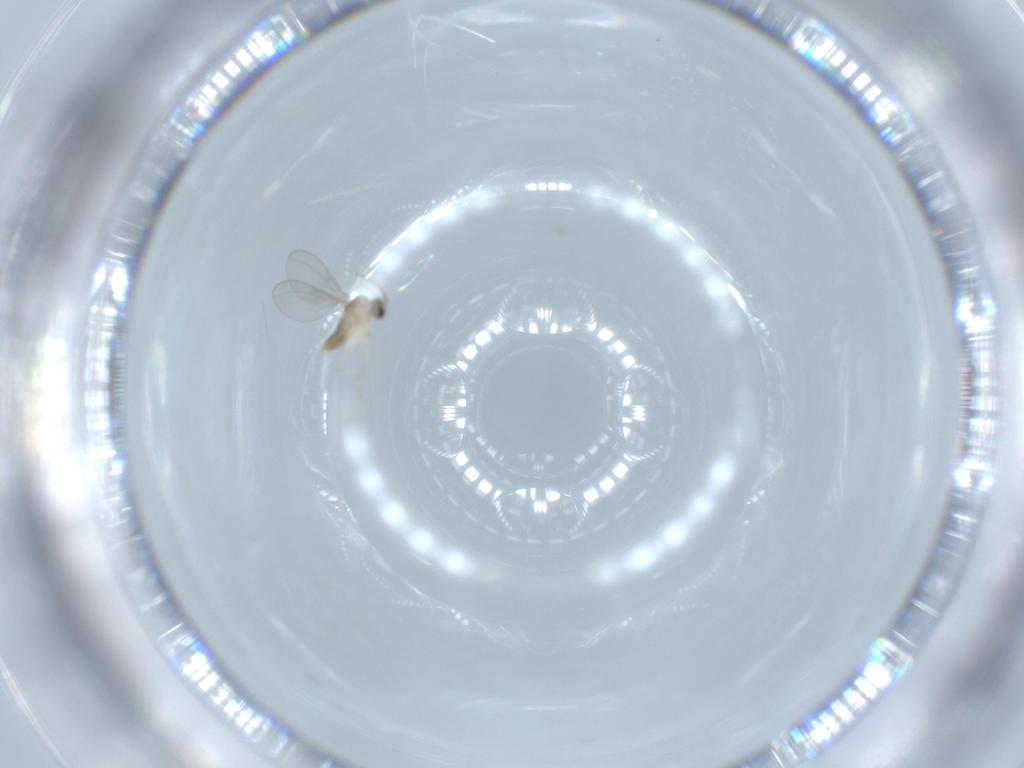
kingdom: Animalia
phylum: Arthropoda
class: Insecta
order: Diptera
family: Cecidomyiidae
